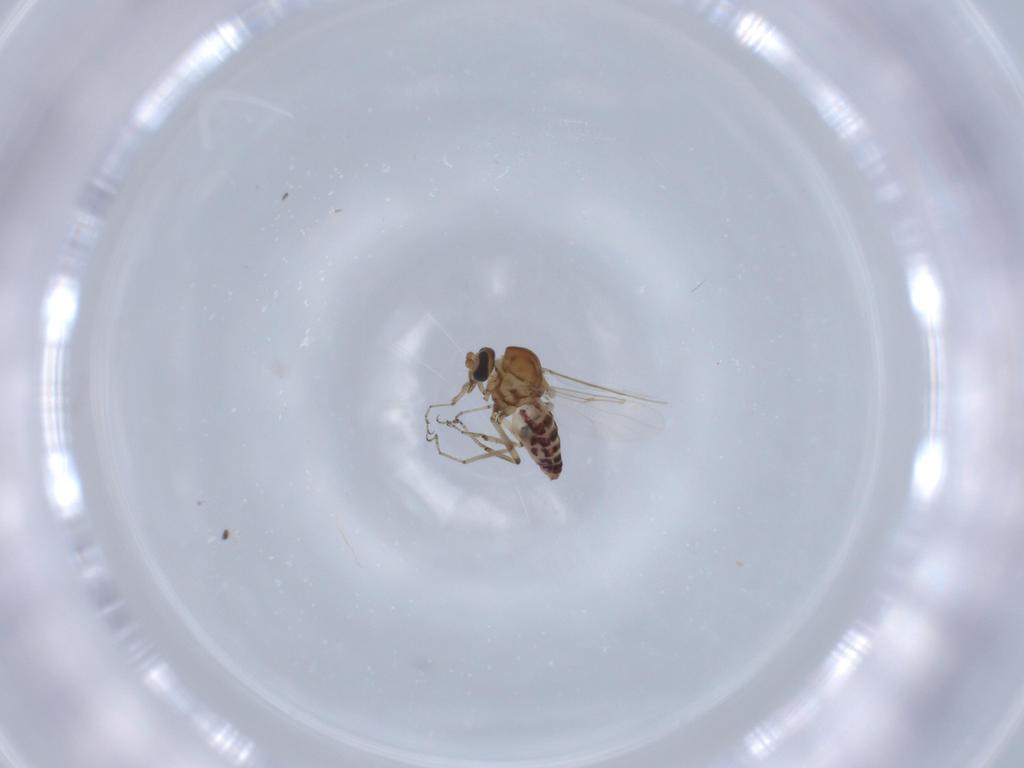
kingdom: Animalia
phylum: Arthropoda
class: Insecta
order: Diptera
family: Ceratopogonidae
